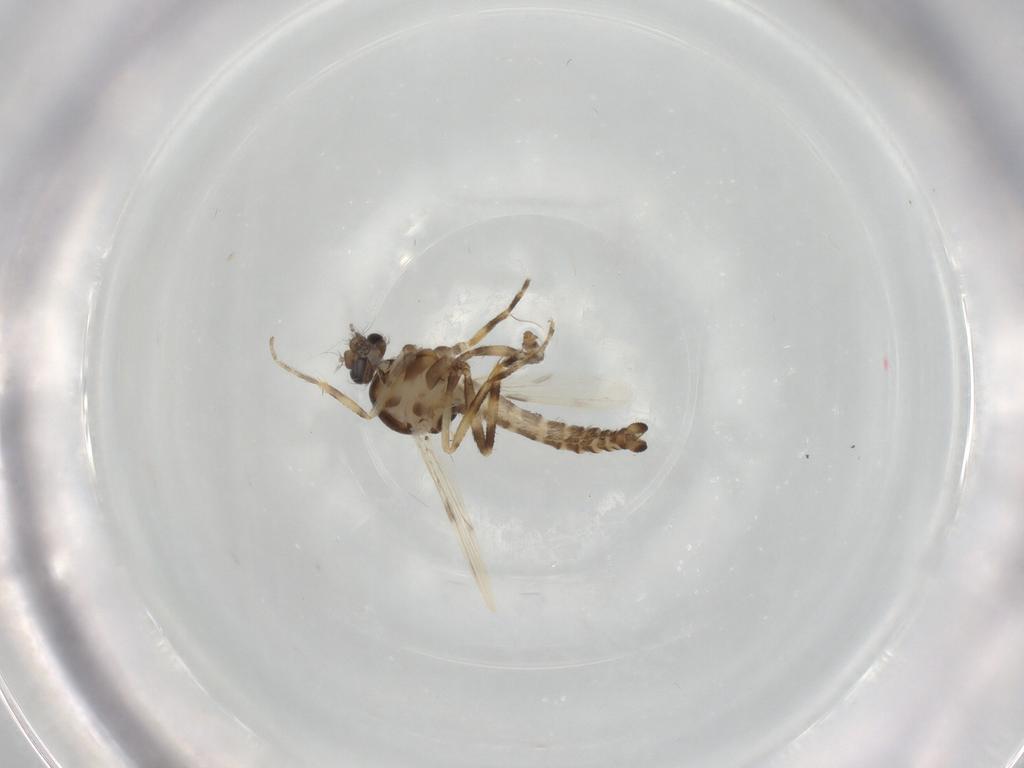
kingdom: Animalia
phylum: Arthropoda
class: Insecta
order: Diptera
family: Ceratopogonidae
